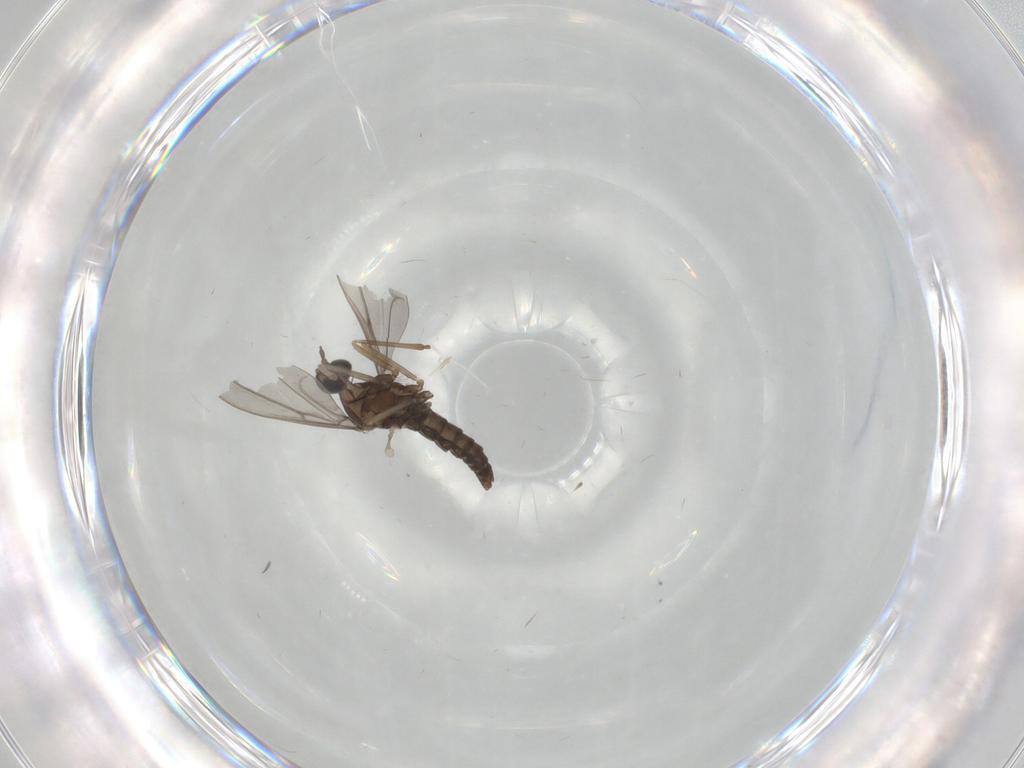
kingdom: Animalia
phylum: Arthropoda
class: Insecta
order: Diptera
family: Cecidomyiidae
